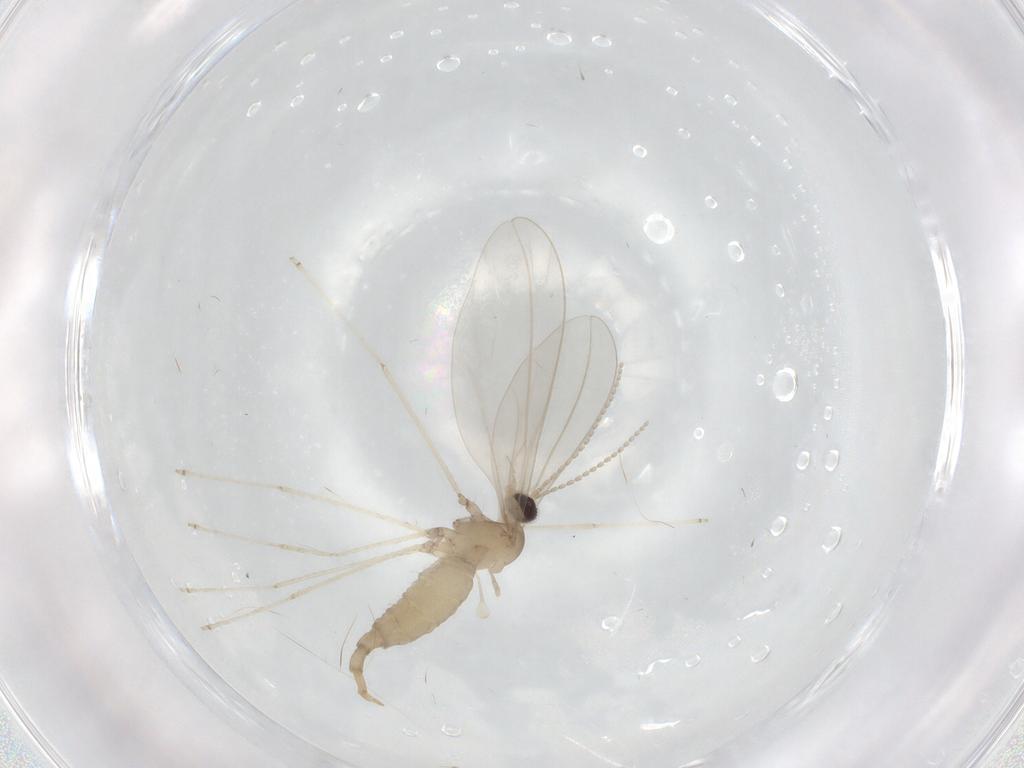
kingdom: Animalia
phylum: Arthropoda
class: Insecta
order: Diptera
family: Cecidomyiidae
